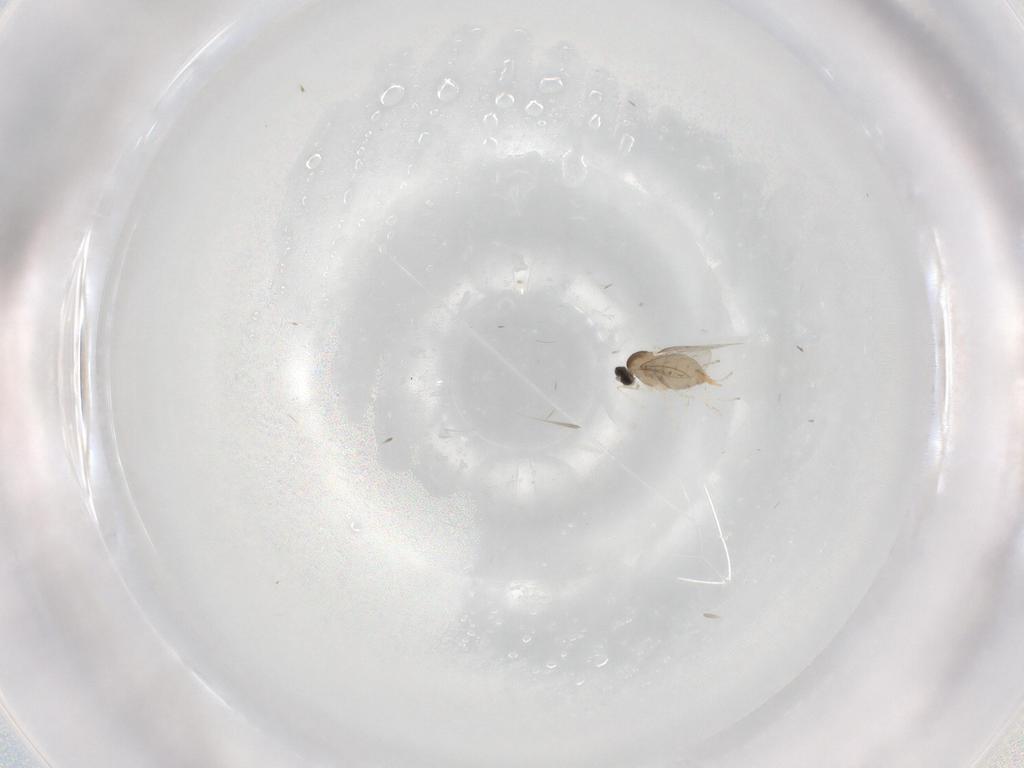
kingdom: Animalia
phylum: Arthropoda
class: Insecta
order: Diptera
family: Cecidomyiidae
